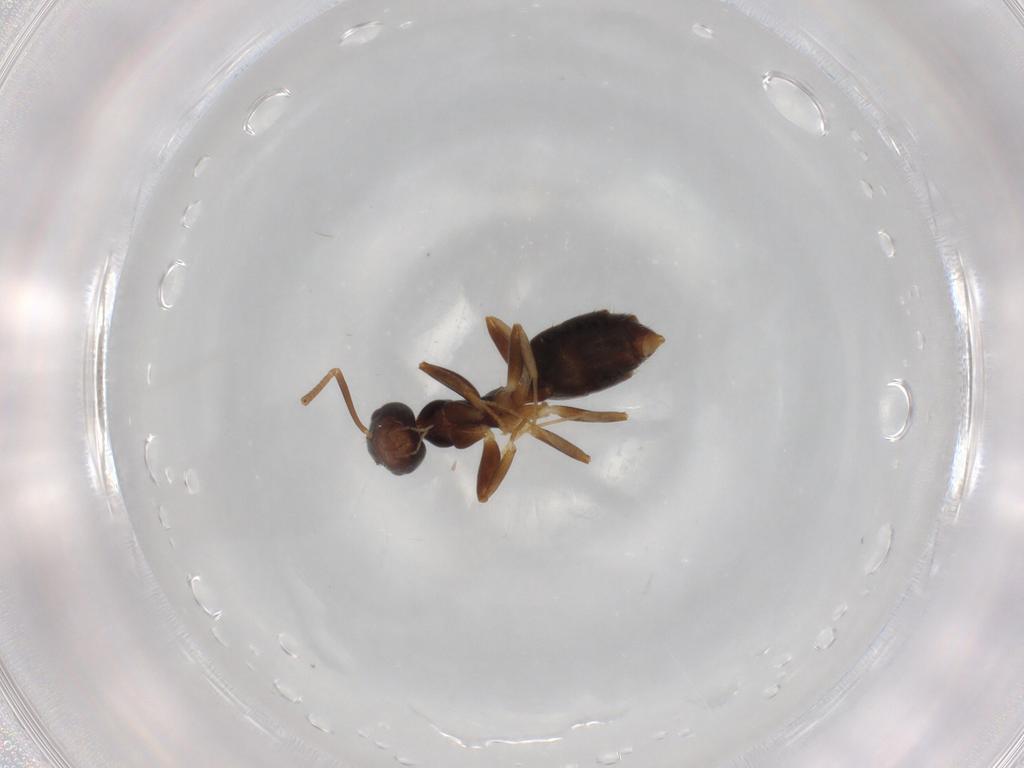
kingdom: Animalia
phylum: Arthropoda
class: Insecta
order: Hymenoptera
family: Formicidae
